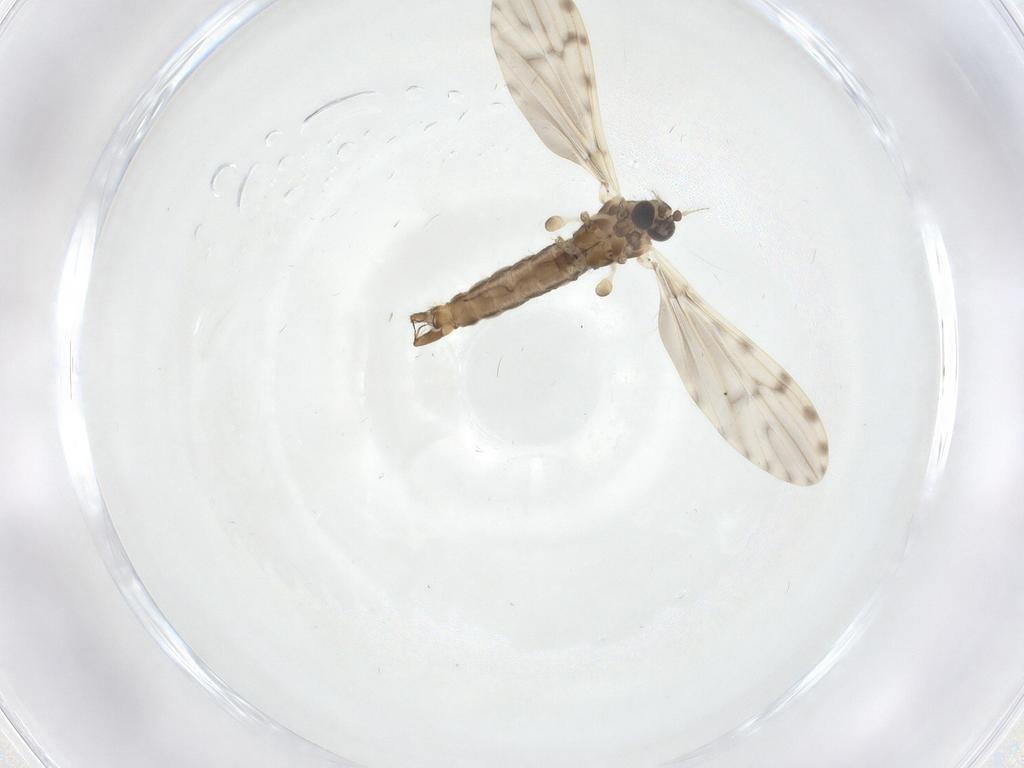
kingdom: Animalia
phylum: Arthropoda
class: Insecta
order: Diptera
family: Limoniidae
